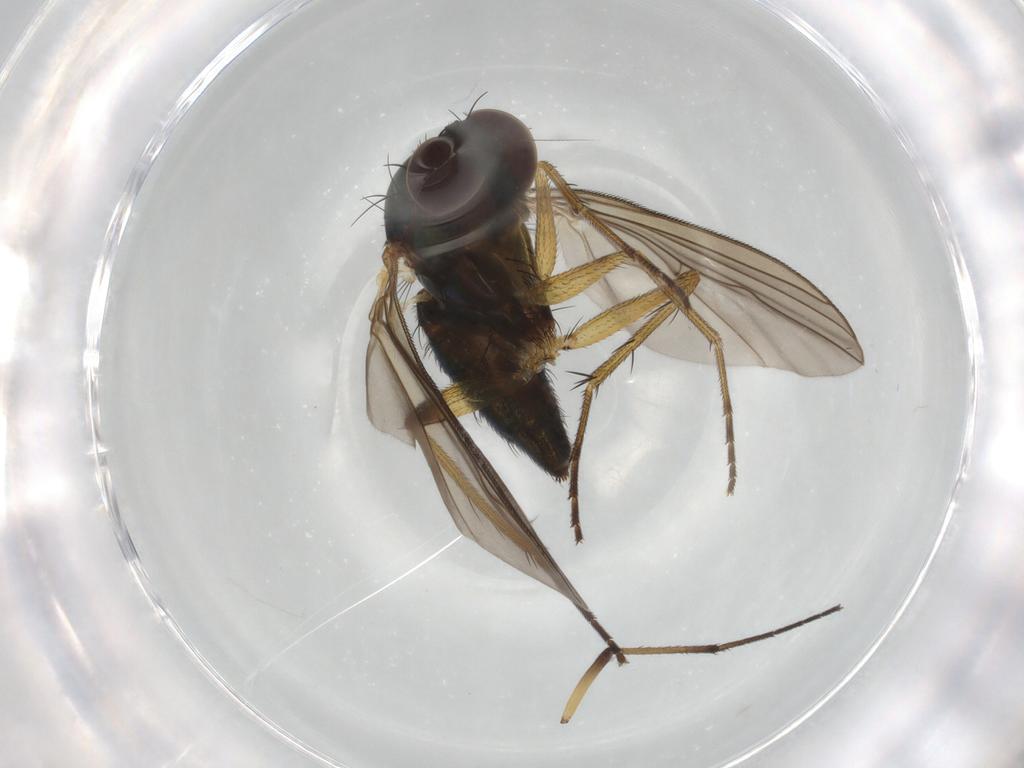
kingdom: Animalia
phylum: Arthropoda
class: Insecta
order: Diptera
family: Dolichopodidae
